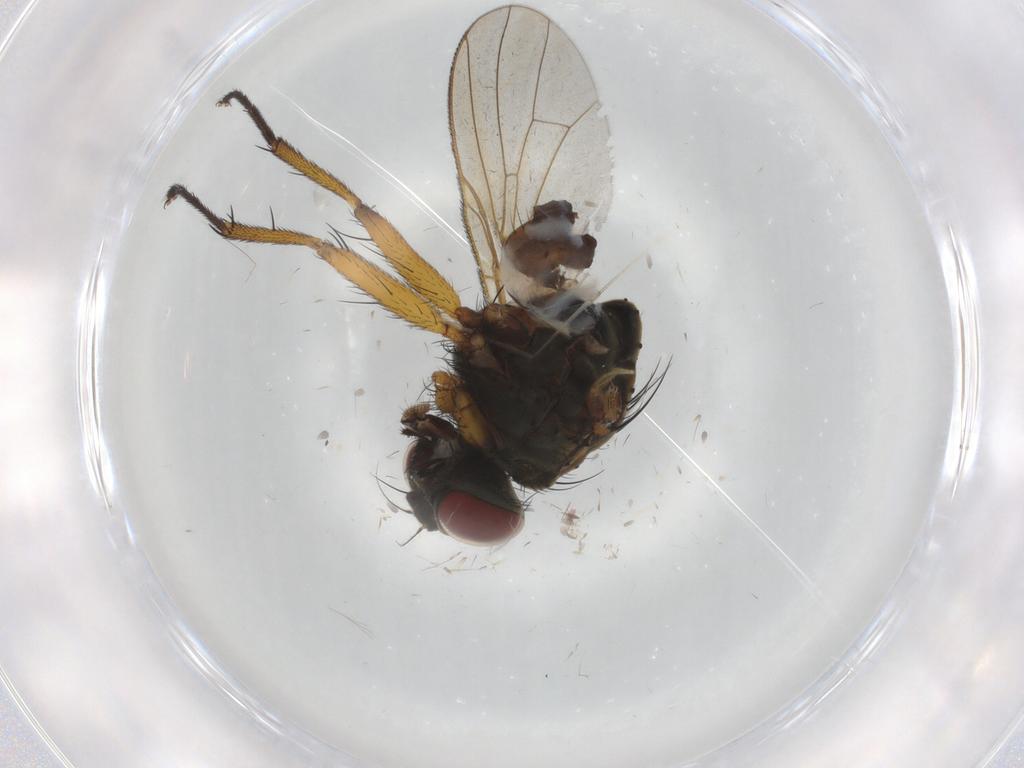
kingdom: Animalia
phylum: Arthropoda
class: Insecta
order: Diptera
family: Muscidae
